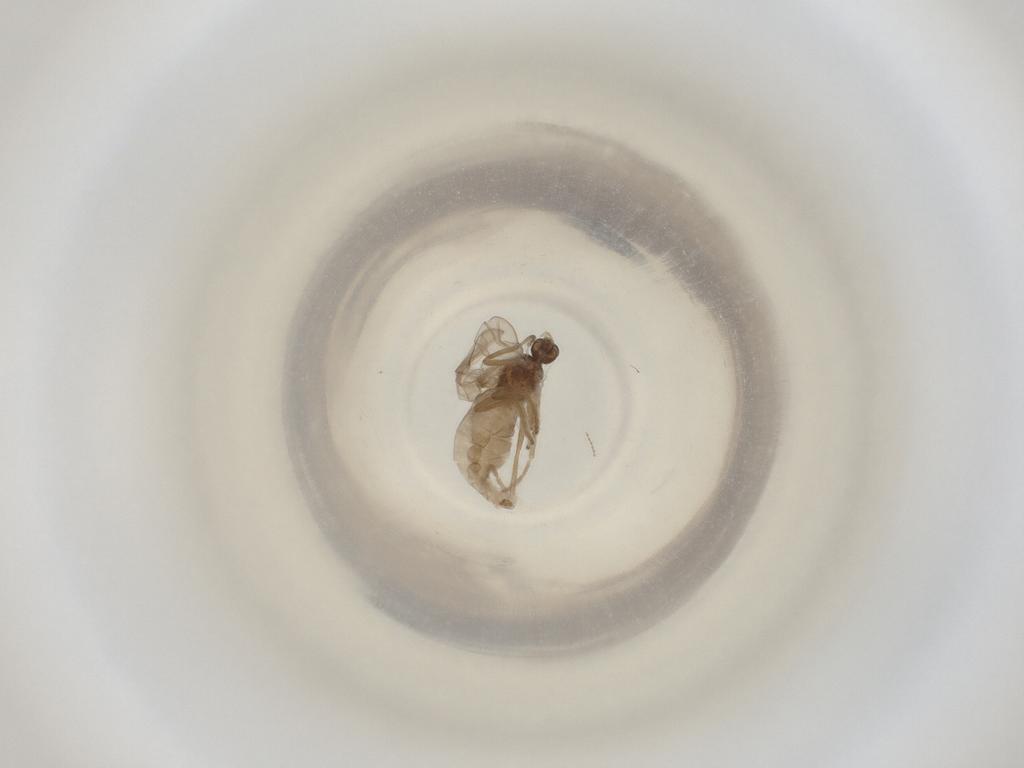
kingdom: Animalia
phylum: Arthropoda
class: Insecta
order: Diptera
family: Cecidomyiidae
